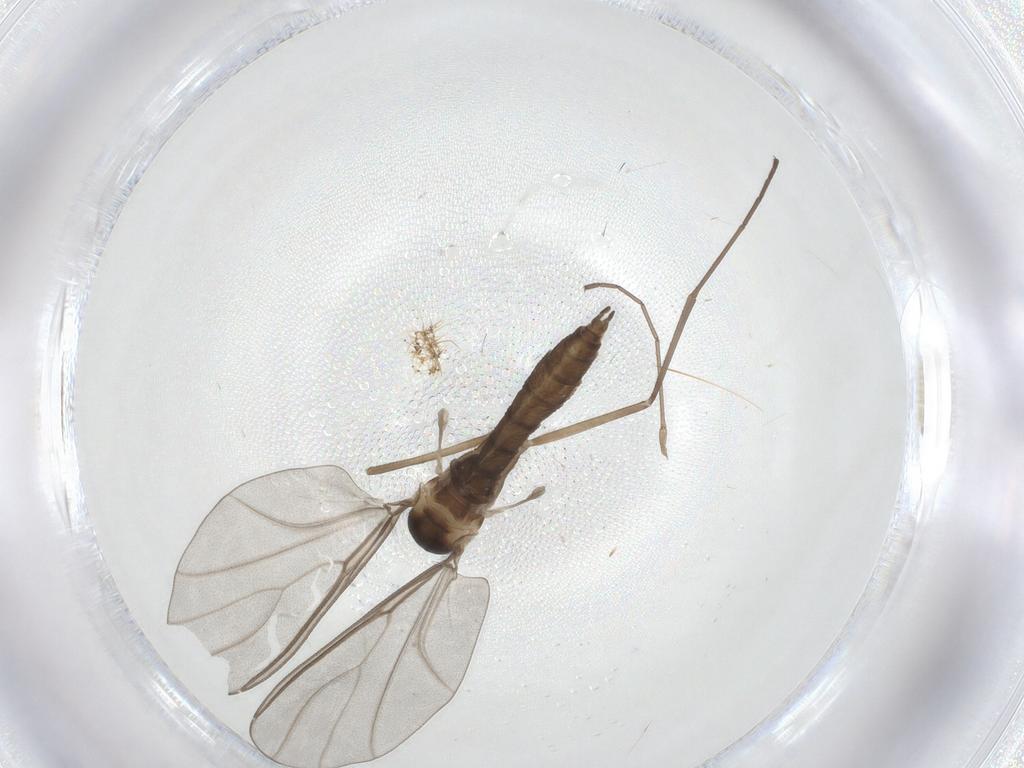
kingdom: Animalia
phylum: Arthropoda
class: Insecta
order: Diptera
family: Cecidomyiidae
